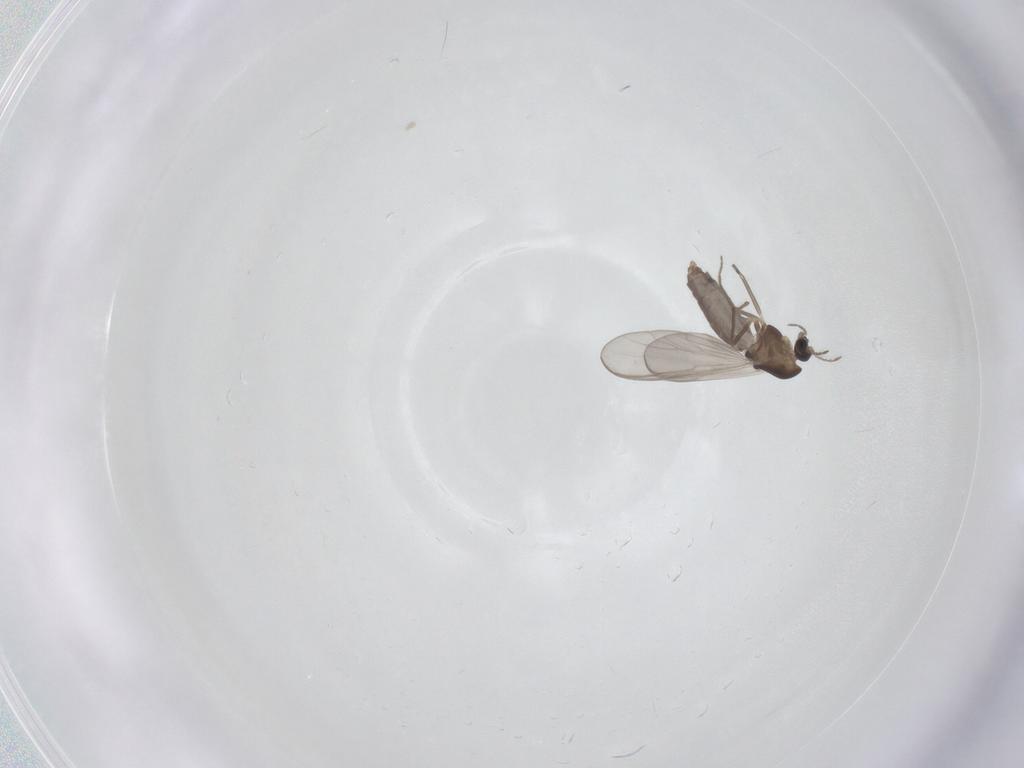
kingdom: Animalia
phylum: Arthropoda
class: Insecta
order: Diptera
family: Chironomidae
